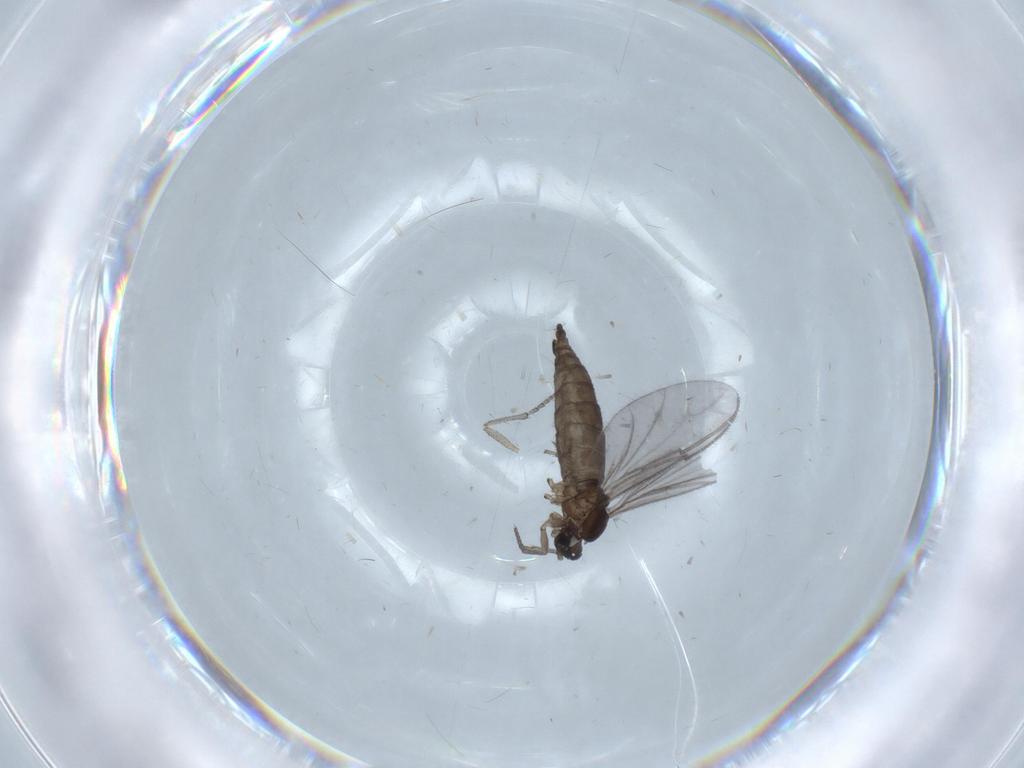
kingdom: Animalia
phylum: Arthropoda
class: Insecta
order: Diptera
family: Sciaridae
